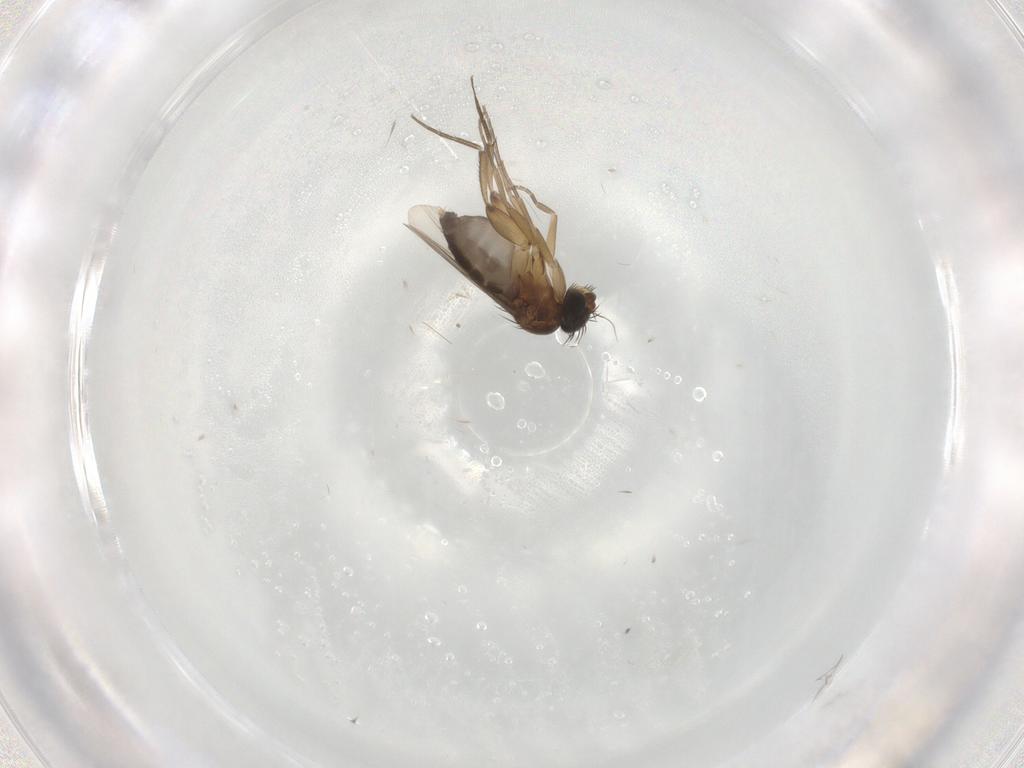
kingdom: Animalia
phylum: Arthropoda
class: Insecta
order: Diptera
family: Phoridae
